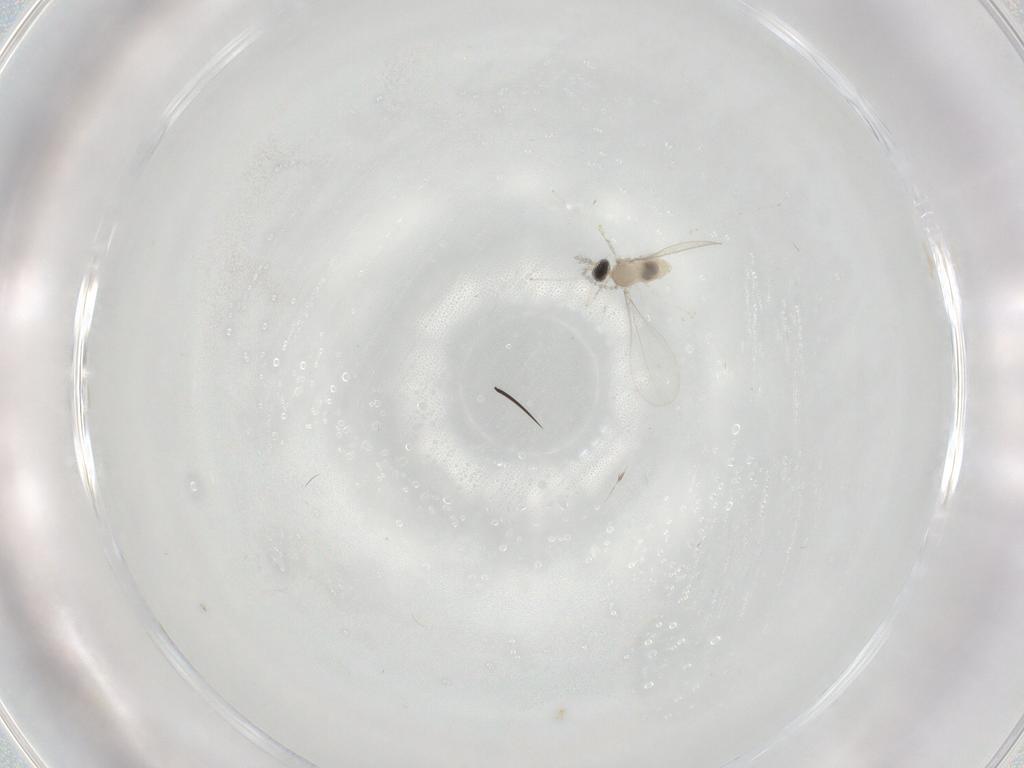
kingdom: Animalia
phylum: Arthropoda
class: Insecta
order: Diptera
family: Cecidomyiidae
